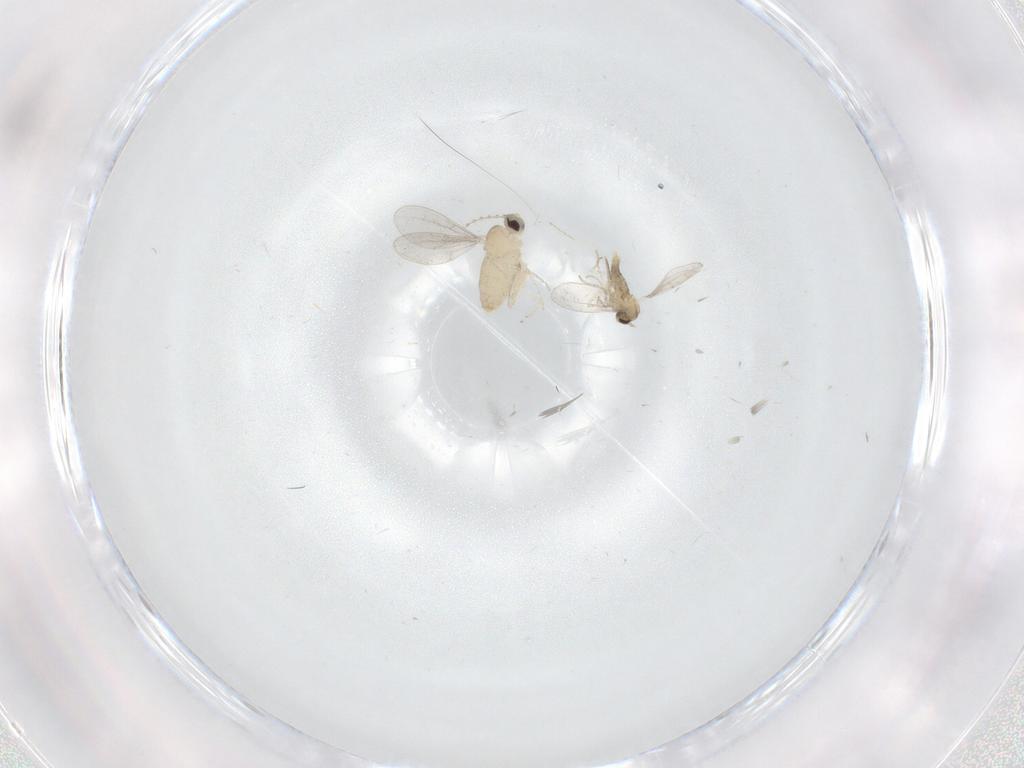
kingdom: Animalia
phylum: Arthropoda
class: Insecta
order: Diptera
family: Cecidomyiidae
